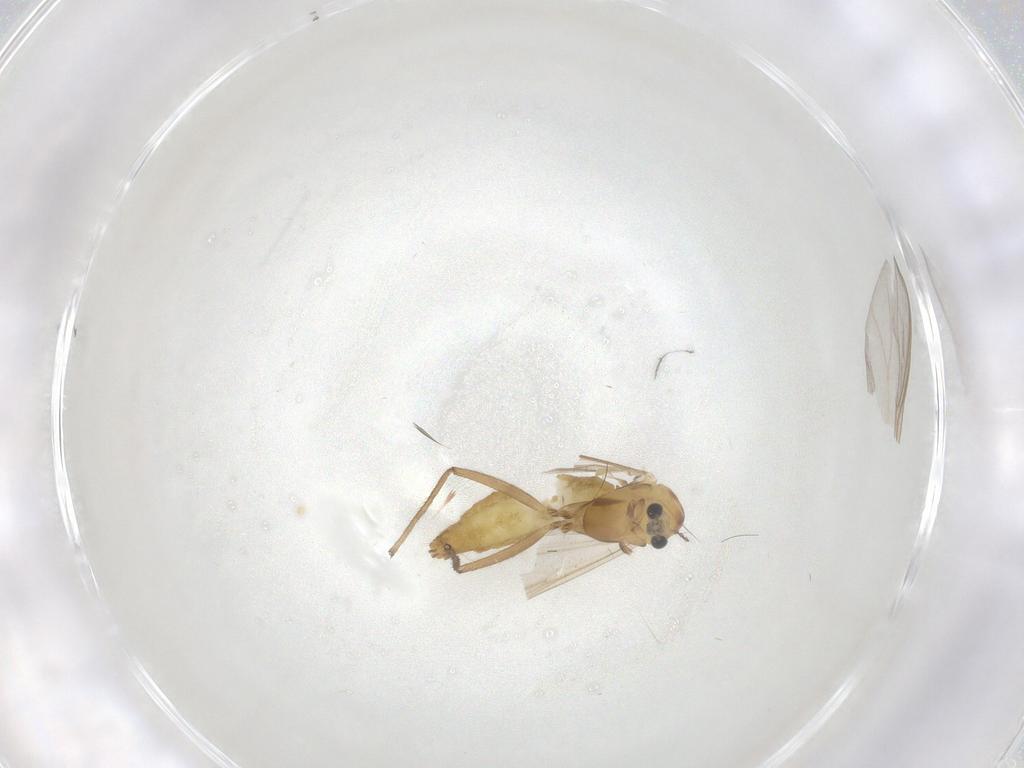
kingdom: Animalia
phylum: Arthropoda
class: Insecta
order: Diptera
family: Chironomidae
